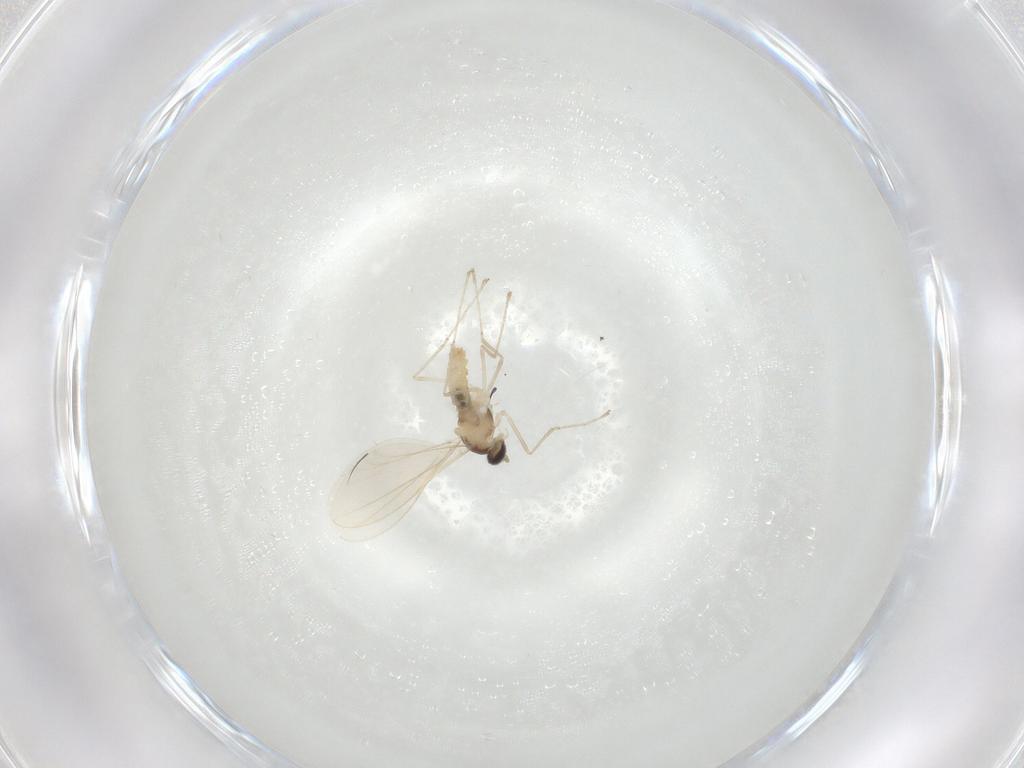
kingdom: Animalia
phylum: Arthropoda
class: Insecta
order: Diptera
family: Cecidomyiidae
